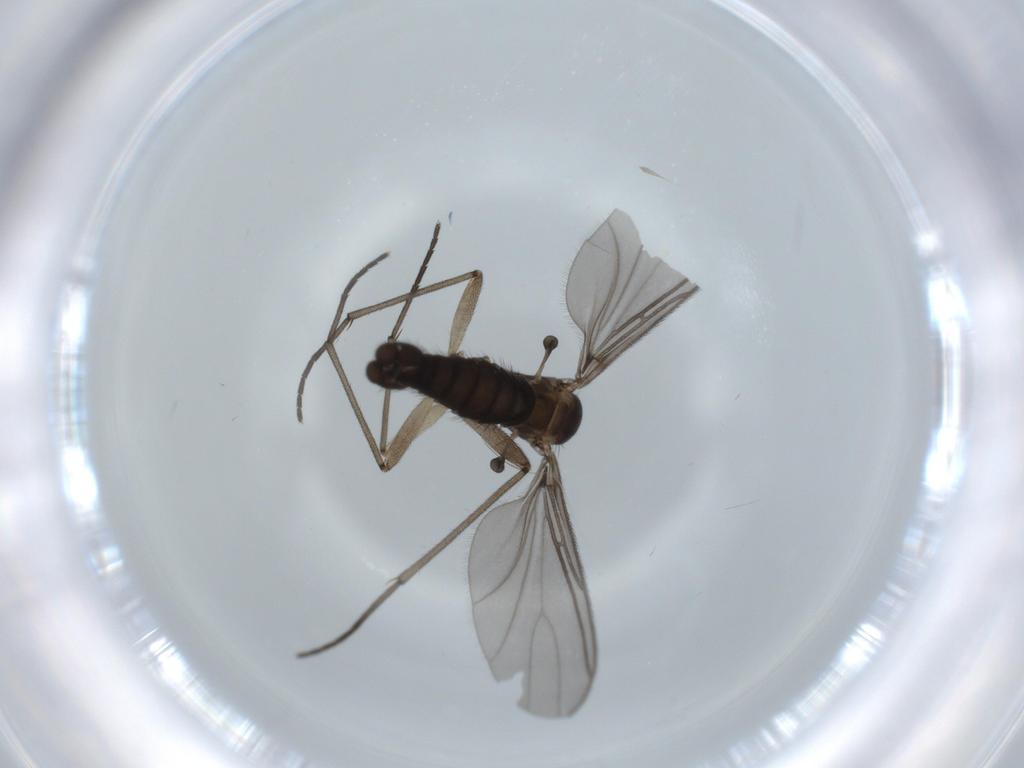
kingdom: Animalia
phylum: Arthropoda
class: Insecta
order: Diptera
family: Sciaridae
